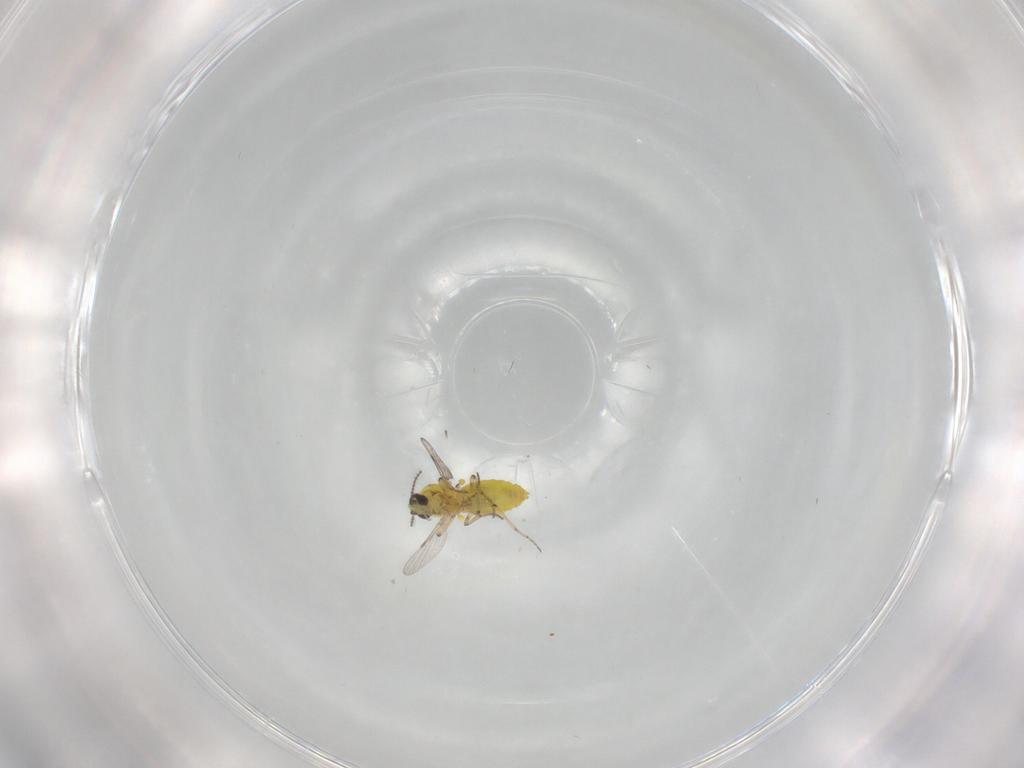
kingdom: Animalia
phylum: Arthropoda
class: Insecta
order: Diptera
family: Ceratopogonidae
